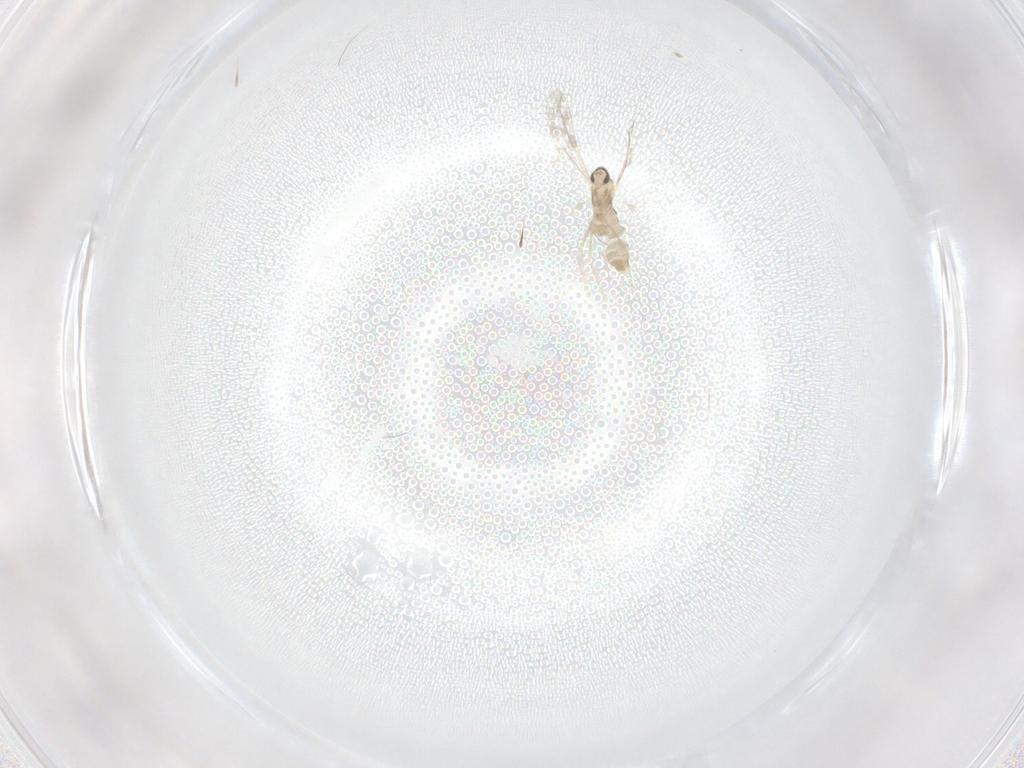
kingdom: Animalia
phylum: Arthropoda
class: Insecta
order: Diptera
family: Cecidomyiidae
